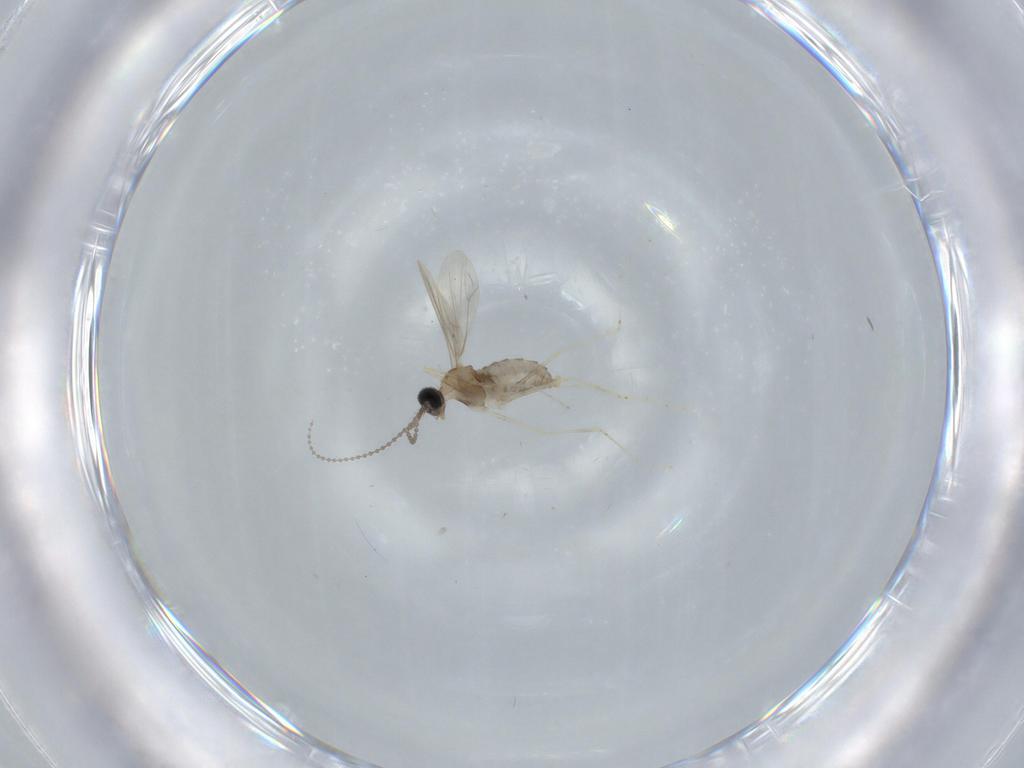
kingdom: Animalia
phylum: Arthropoda
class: Insecta
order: Diptera
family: Cecidomyiidae
